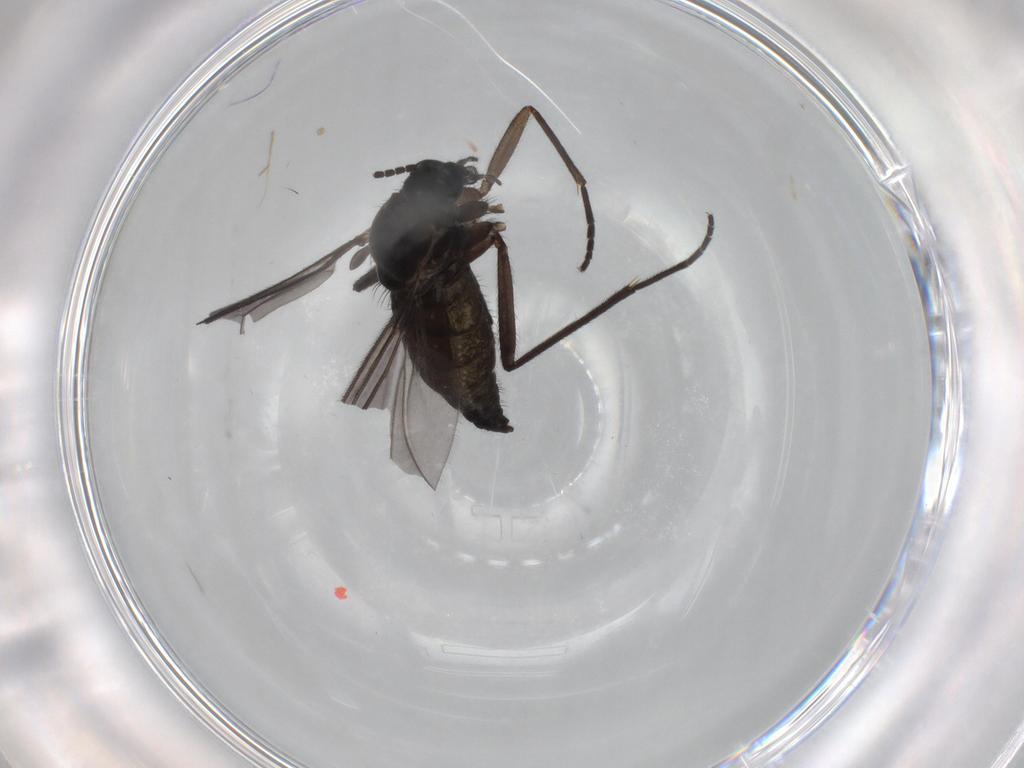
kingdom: Animalia
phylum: Arthropoda
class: Insecta
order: Diptera
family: Sciaridae
